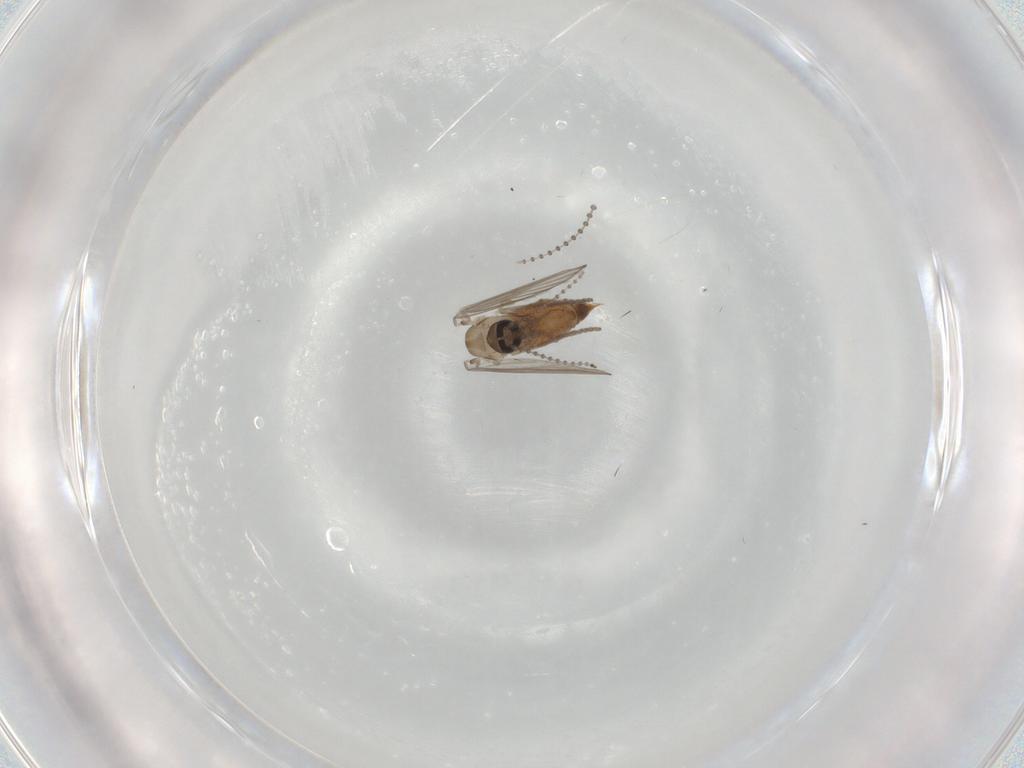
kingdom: Animalia
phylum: Arthropoda
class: Insecta
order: Diptera
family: Psychodidae
